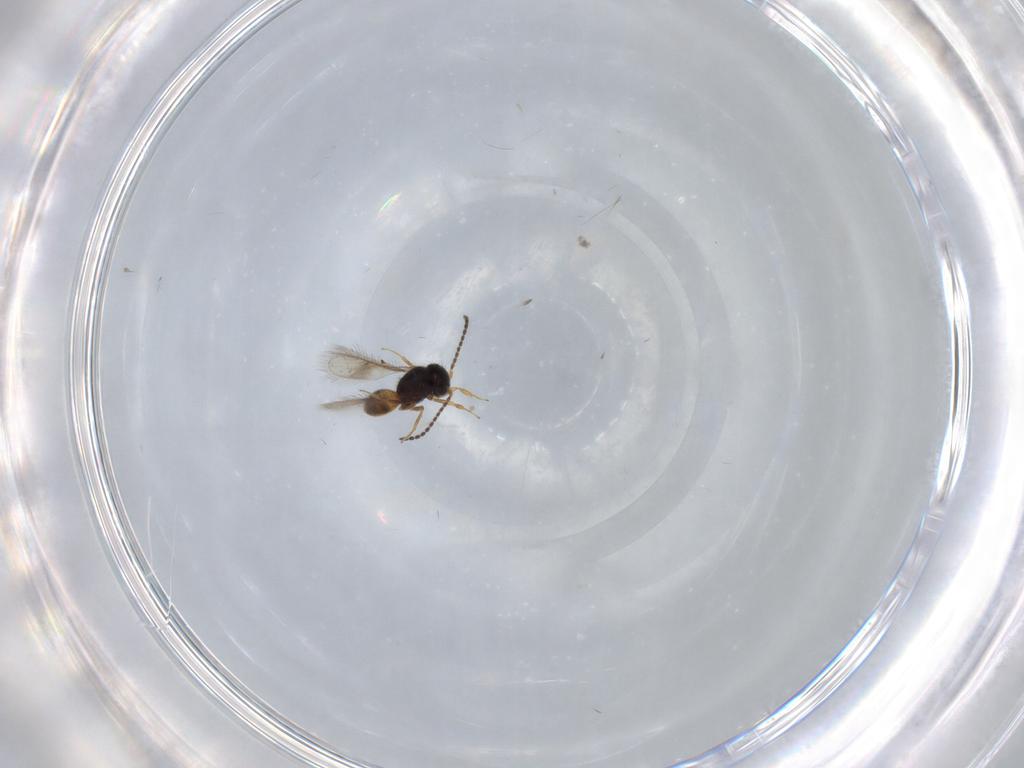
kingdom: Animalia
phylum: Arthropoda
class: Insecta
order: Hymenoptera
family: Scelionidae
